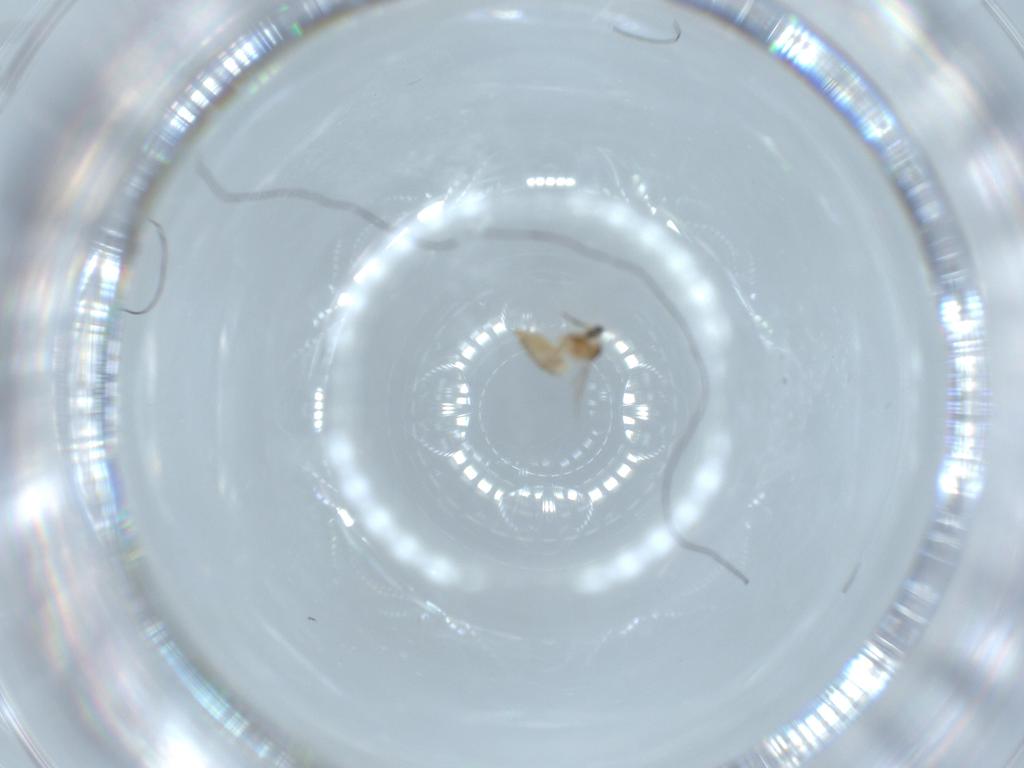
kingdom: Animalia
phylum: Arthropoda
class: Insecta
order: Diptera
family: Cecidomyiidae
